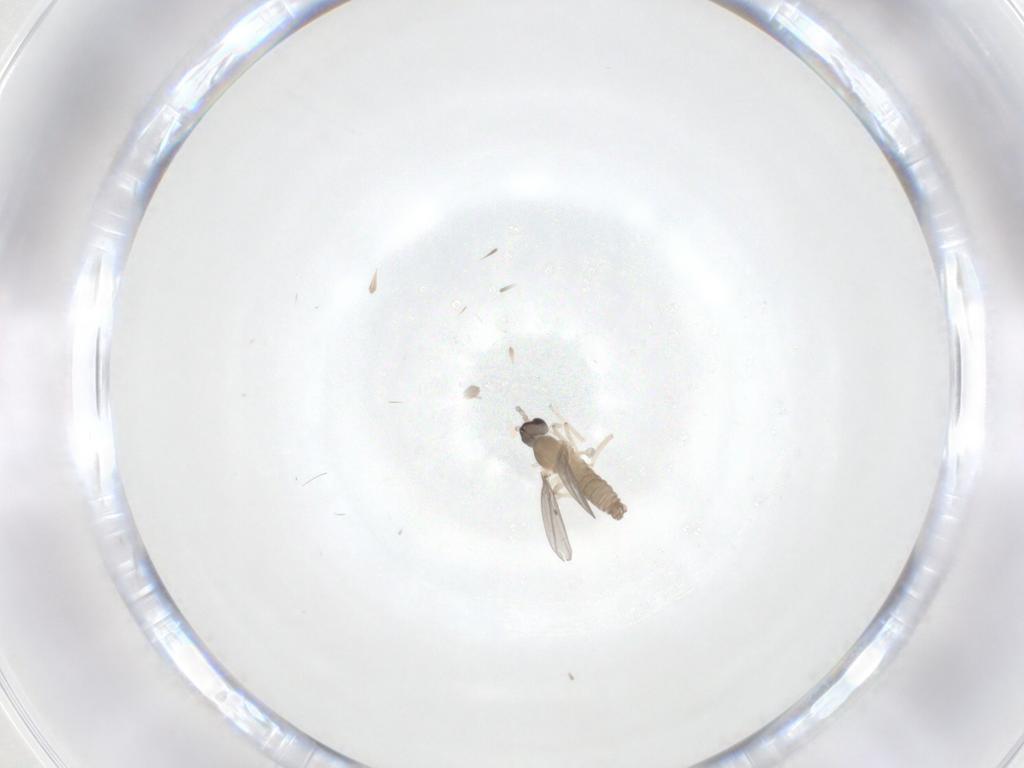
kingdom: Animalia
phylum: Arthropoda
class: Insecta
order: Diptera
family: Cecidomyiidae
